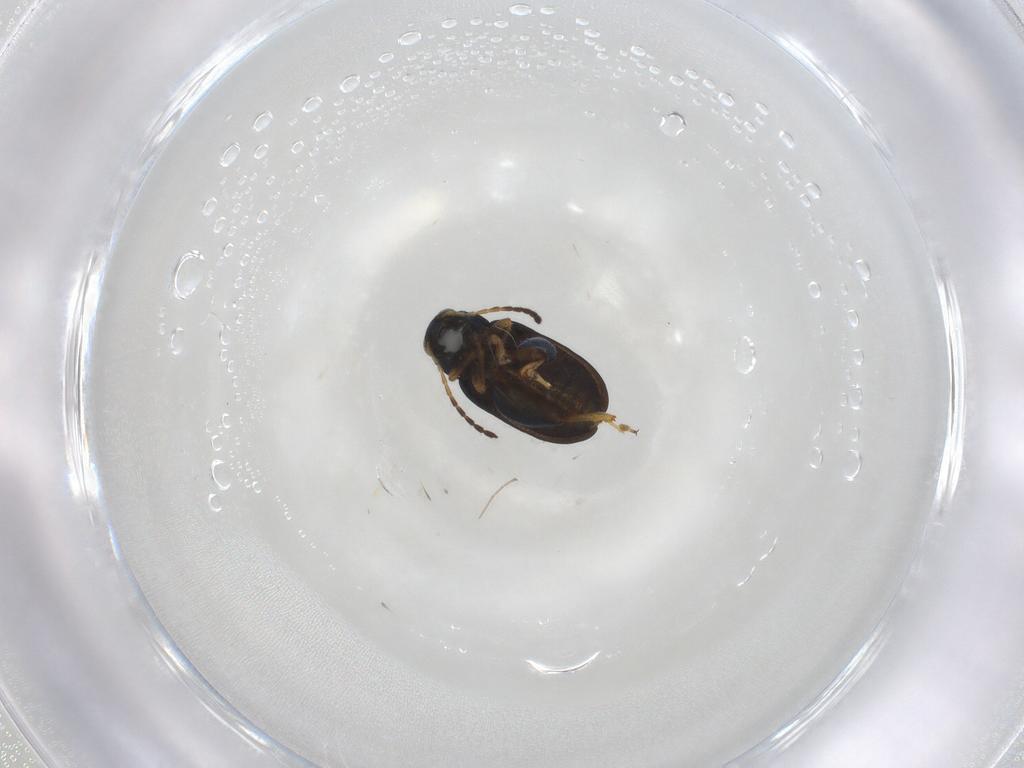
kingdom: Animalia
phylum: Arthropoda
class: Insecta
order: Coleoptera
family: Chrysomelidae
